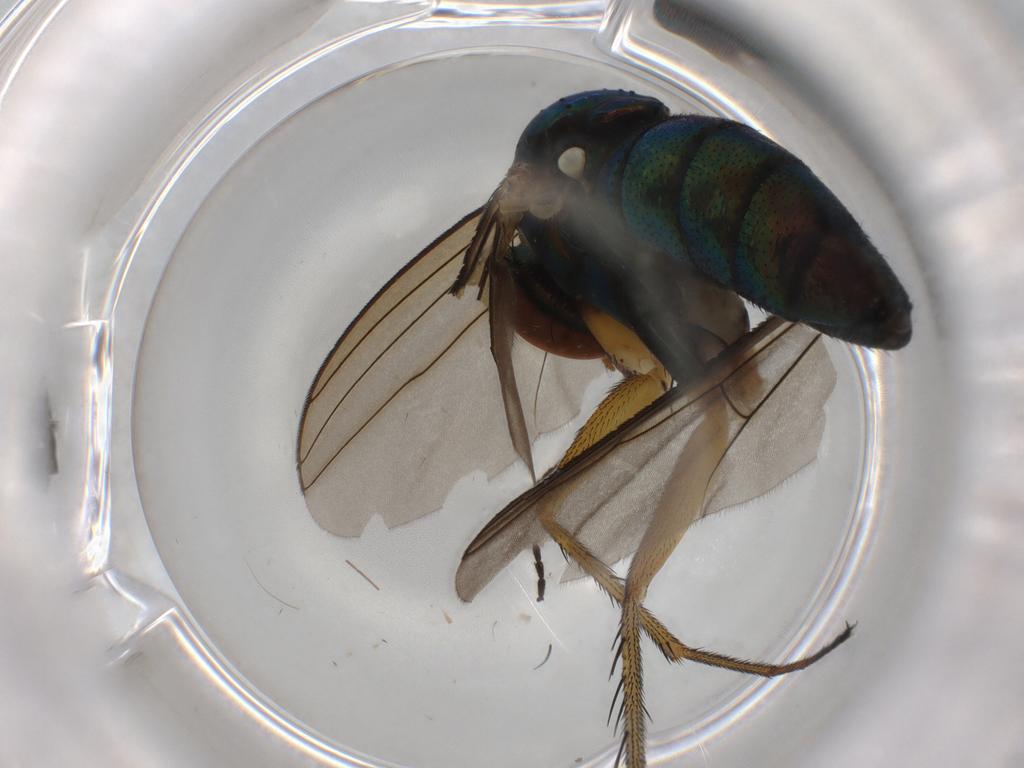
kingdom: Animalia
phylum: Arthropoda
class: Insecta
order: Diptera
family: Dolichopodidae
